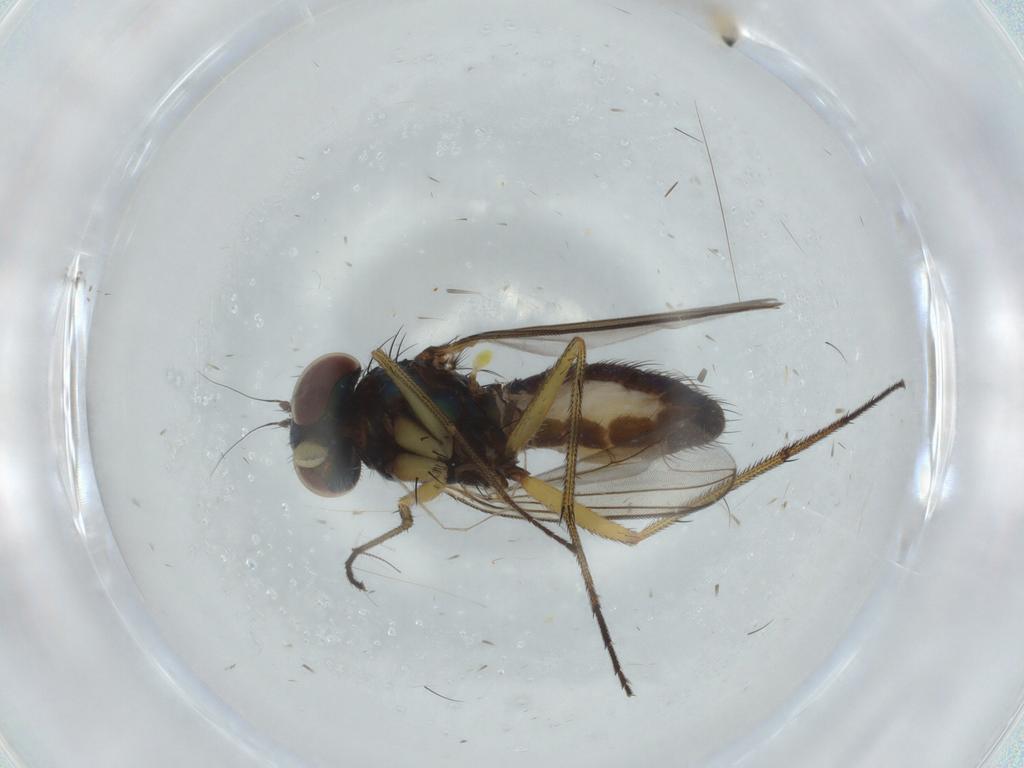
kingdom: Animalia
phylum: Arthropoda
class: Insecta
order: Diptera
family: Dolichopodidae
